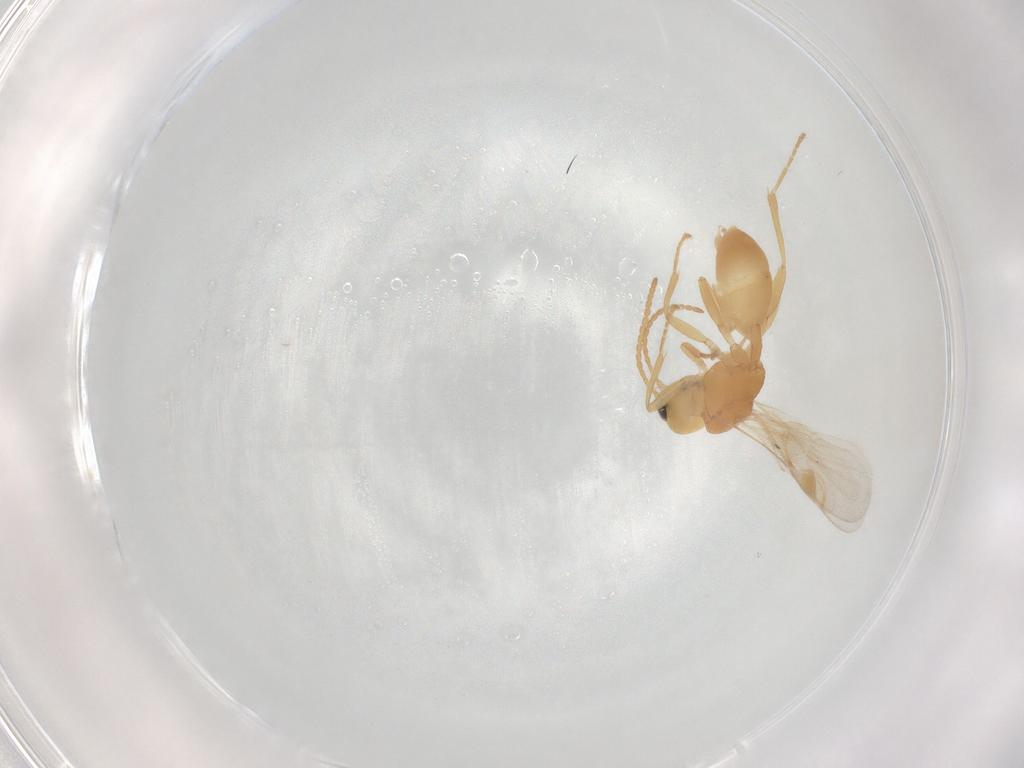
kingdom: Animalia
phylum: Arthropoda
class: Insecta
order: Hymenoptera
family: Braconidae
